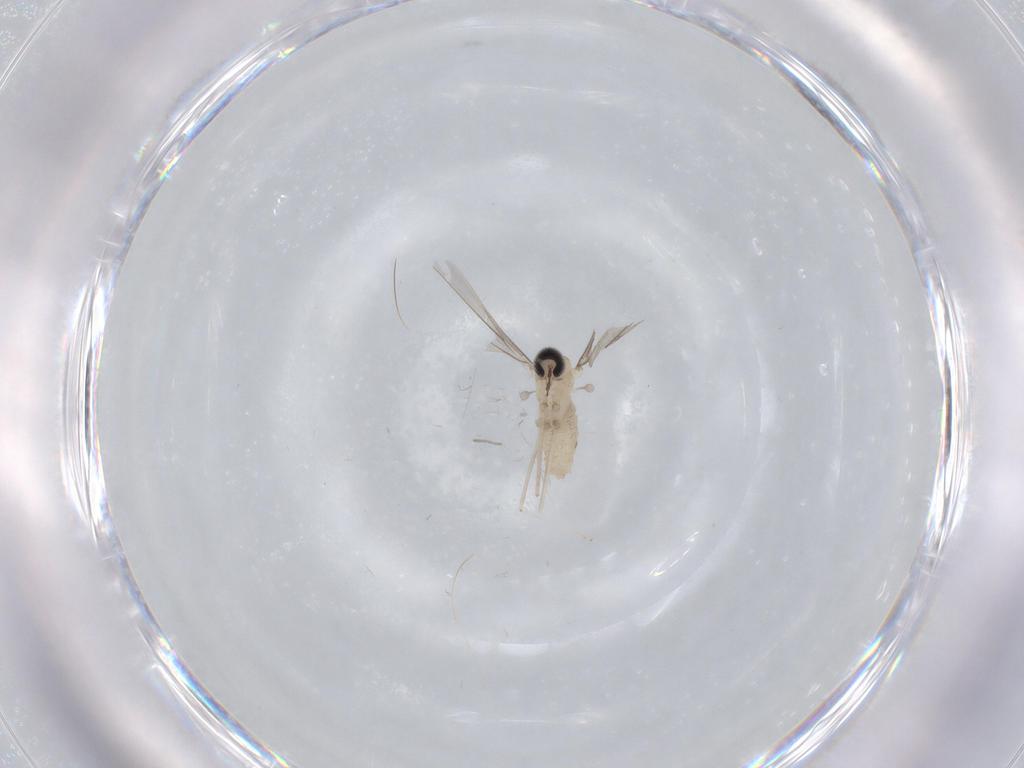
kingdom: Animalia
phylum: Arthropoda
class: Insecta
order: Diptera
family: Cecidomyiidae
